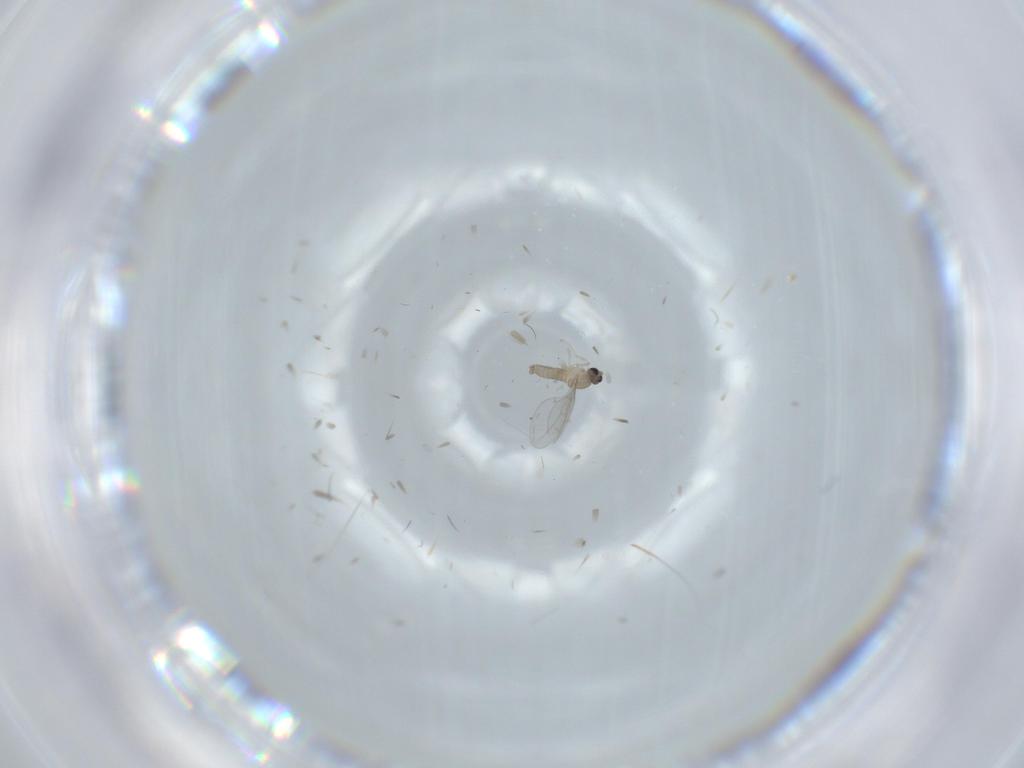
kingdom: Animalia
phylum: Arthropoda
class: Insecta
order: Diptera
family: Rhagionidae
